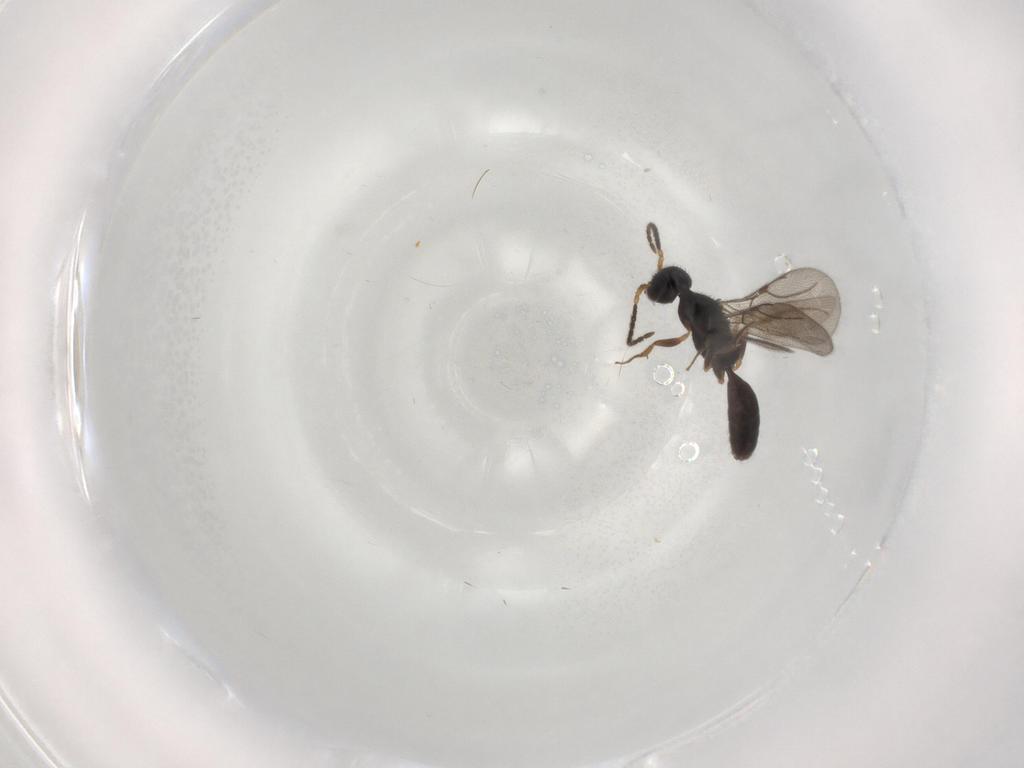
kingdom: Animalia
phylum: Arthropoda
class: Insecta
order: Hymenoptera
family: Bethylidae
